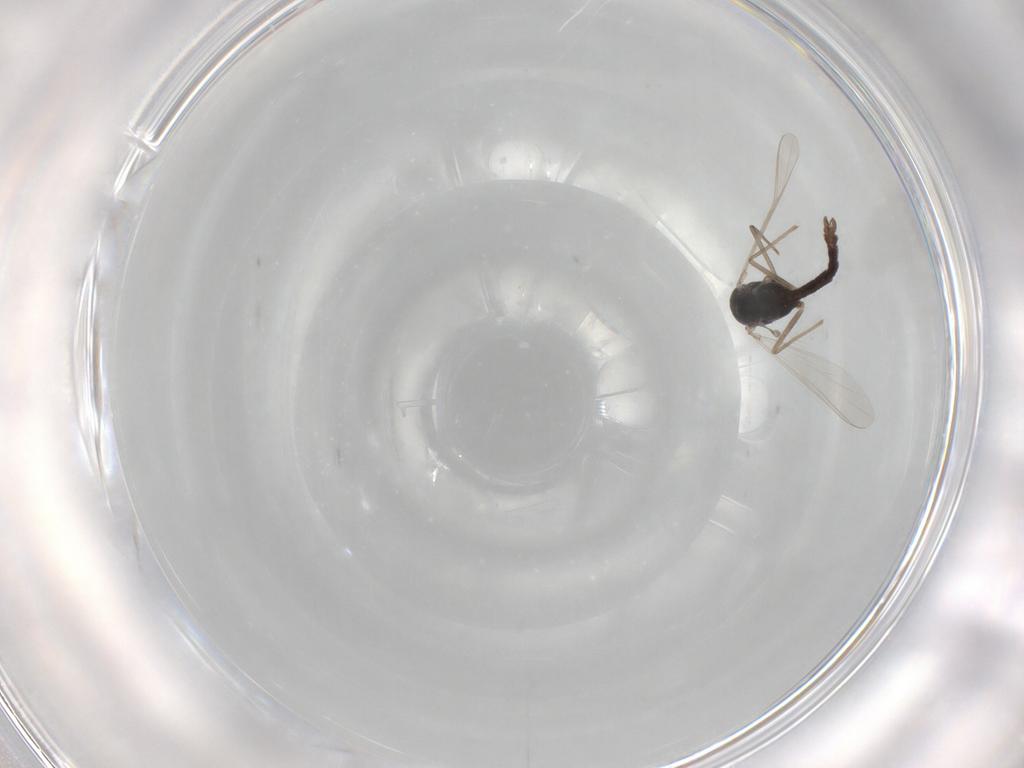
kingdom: Animalia
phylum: Arthropoda
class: Insecta
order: Diptera
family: Chironomidae
